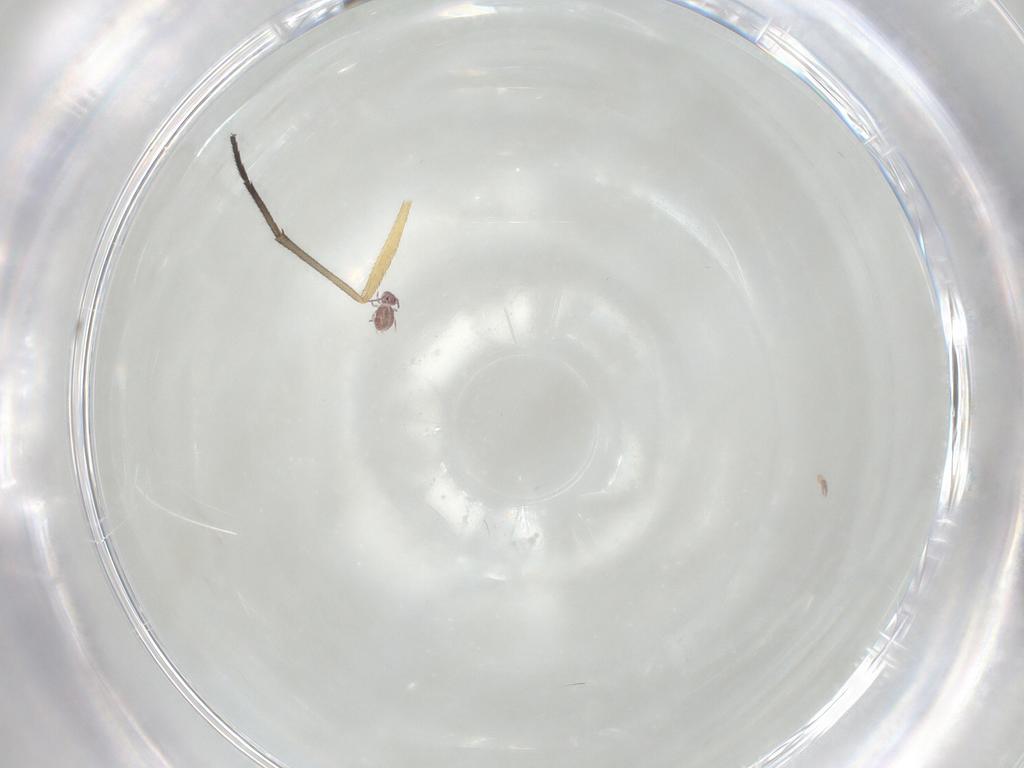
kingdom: Animalia
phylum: Arthropoda
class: Insecta
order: Diptera
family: Sciaridae
